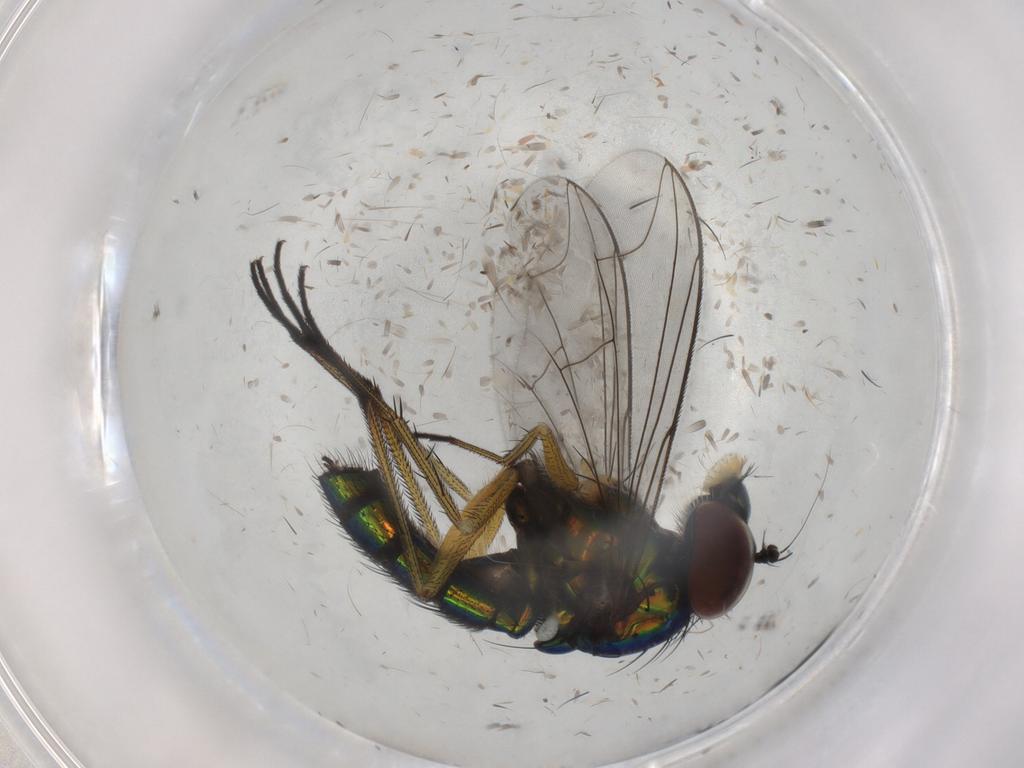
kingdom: Animalia
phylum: Arthropoda
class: Insecta
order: Diptera
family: Dolichopodidae
